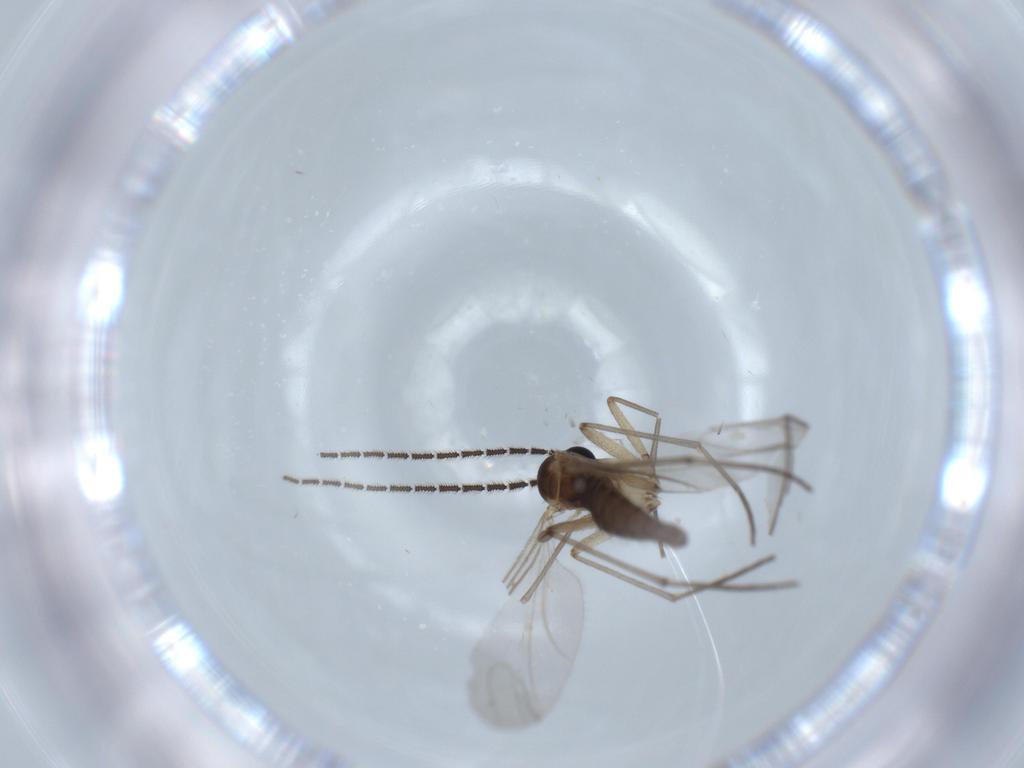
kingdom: Animalia
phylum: Arthropoda
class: Insecta
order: Diptera
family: Sciaridae
